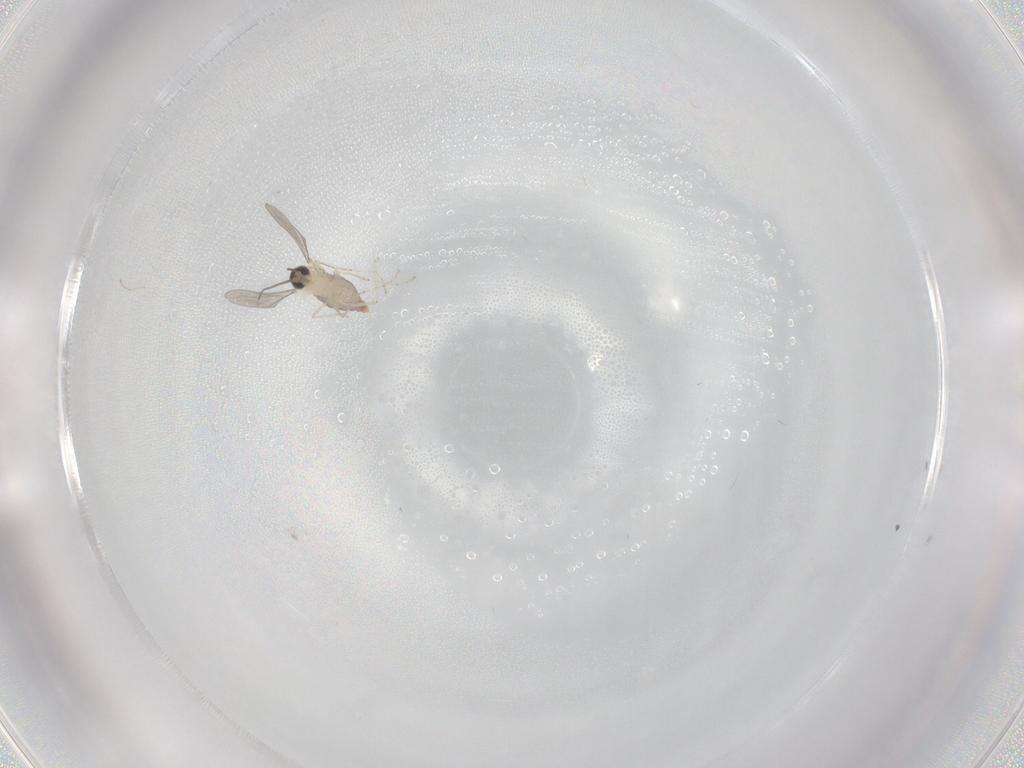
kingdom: Animalia
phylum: Arthropoda
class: Insecta
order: Diptera
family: Cecidomyiidae
